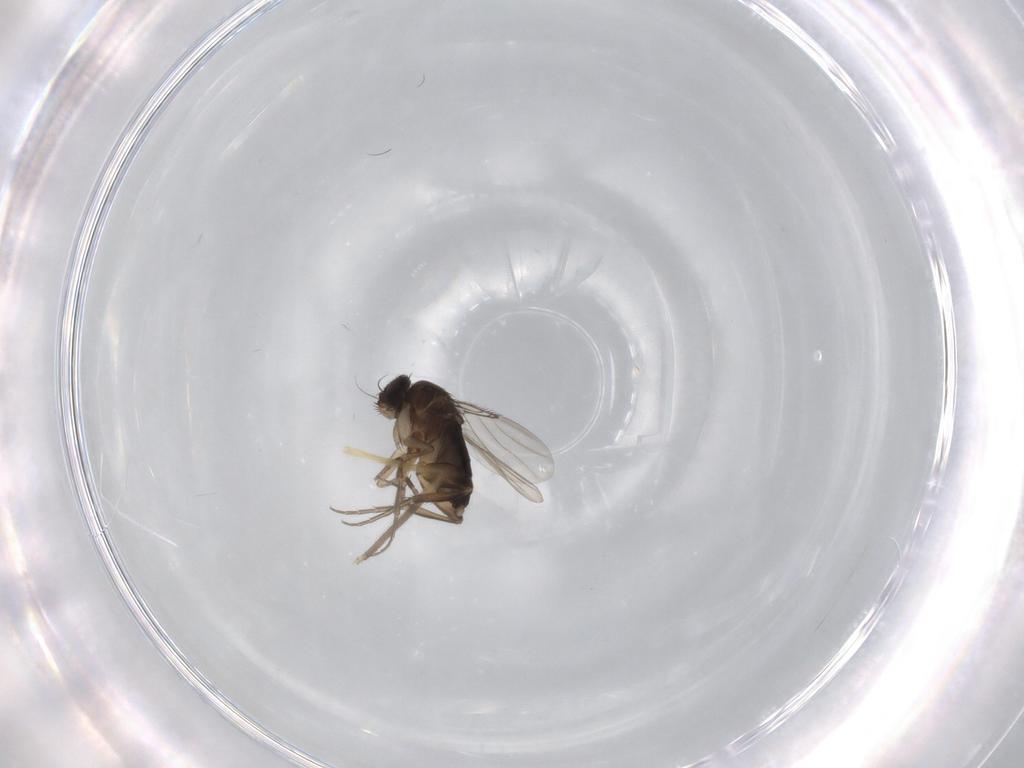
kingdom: Animalia
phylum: Arthropoda
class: Insecta
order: Diptera
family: Phoridae
